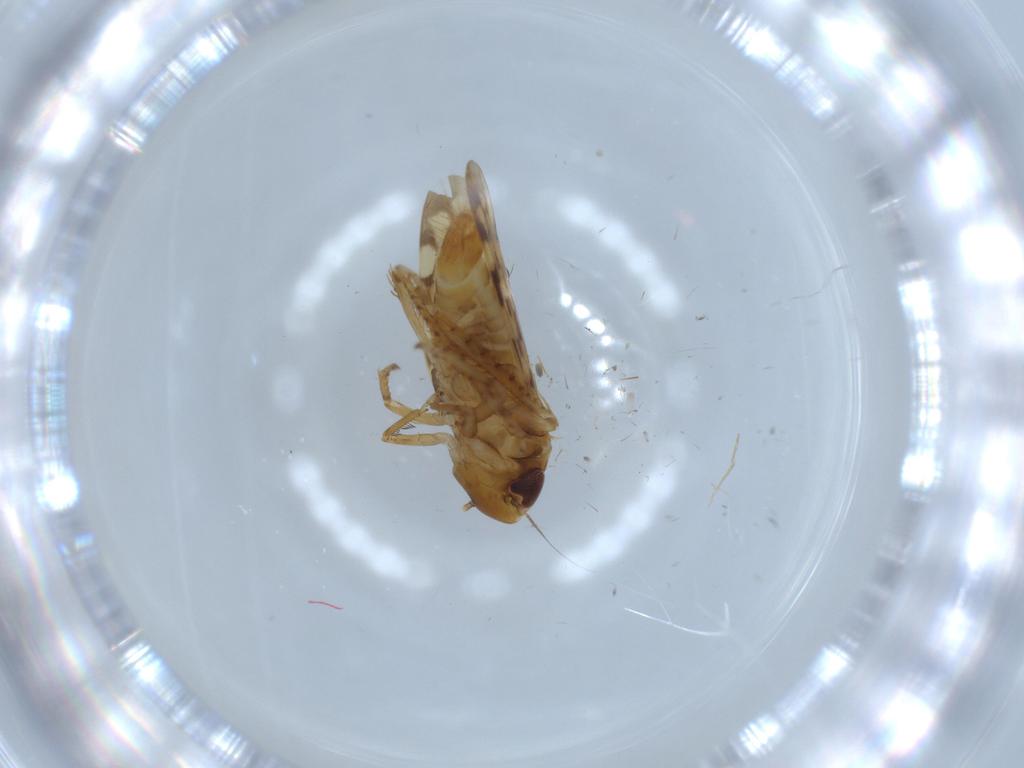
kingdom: Animalia
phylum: Arthropoda
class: Insecta
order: Hemiptera
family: Cicadellidae
